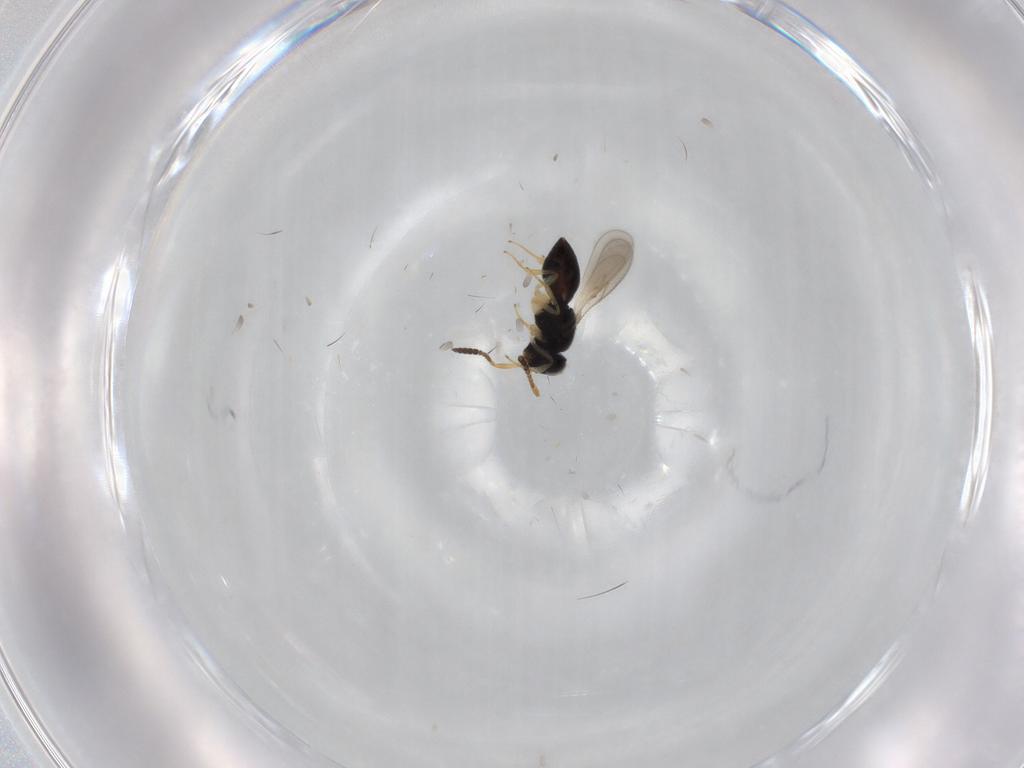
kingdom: Animalia
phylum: Arthropoda
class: Insecta
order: Hymenoptera
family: Scelionidae
